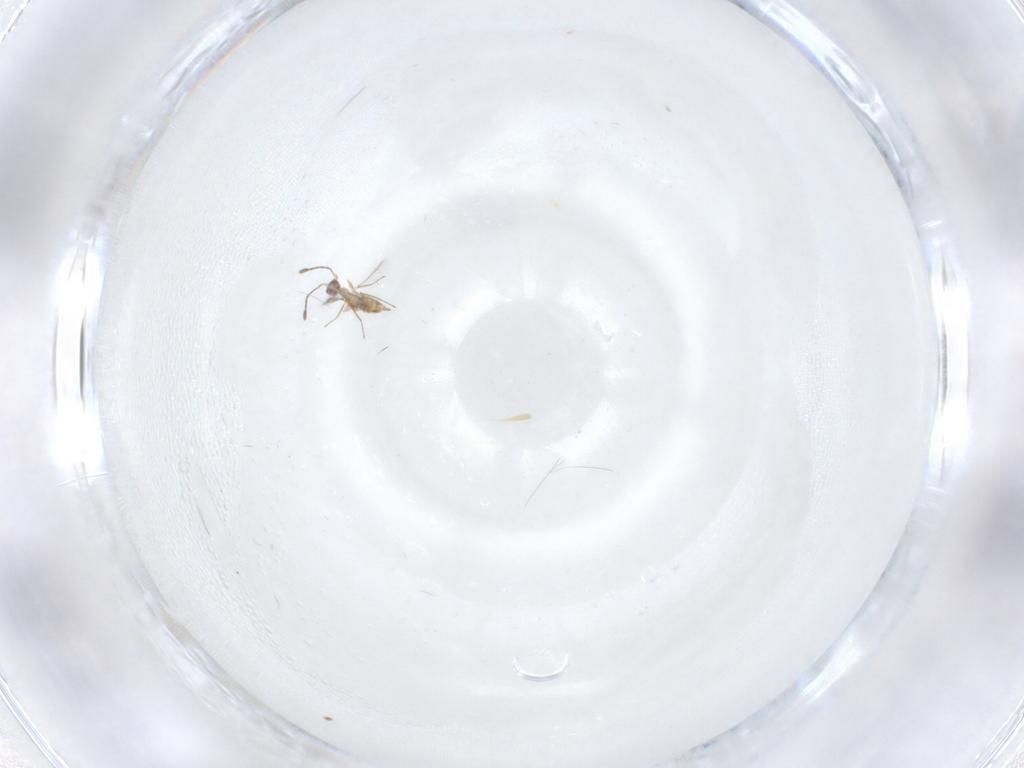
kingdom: Animalia
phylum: Arthropoda
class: Insecta
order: Hymenoptera
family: Mymaridae
